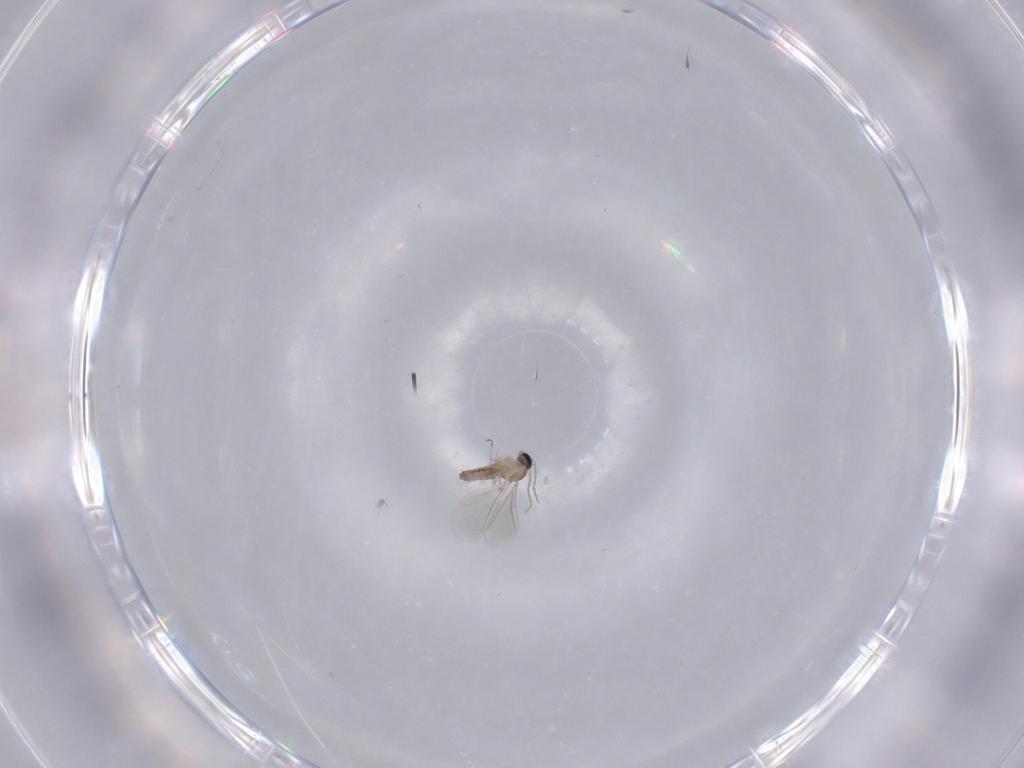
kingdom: Animalia
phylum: Arthropoda
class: Insecta
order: Diptera
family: Cecidomyiidae
